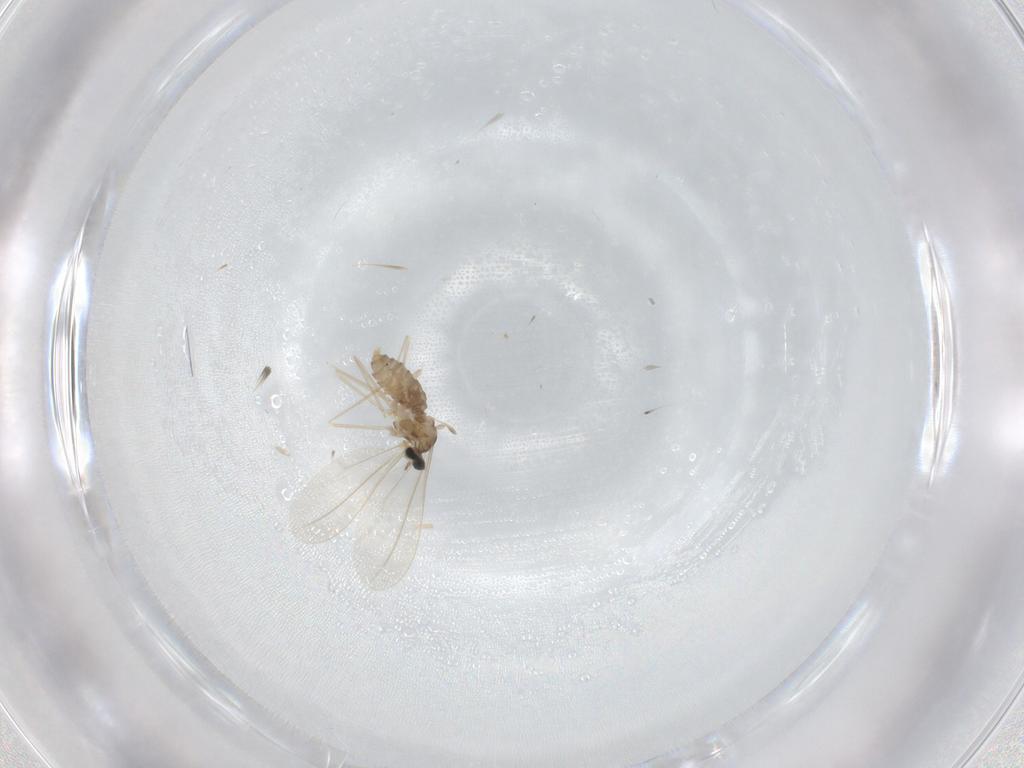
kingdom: Animalia
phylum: Arthropoda
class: Insecta
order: Diptera
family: Cecidomyiidae
